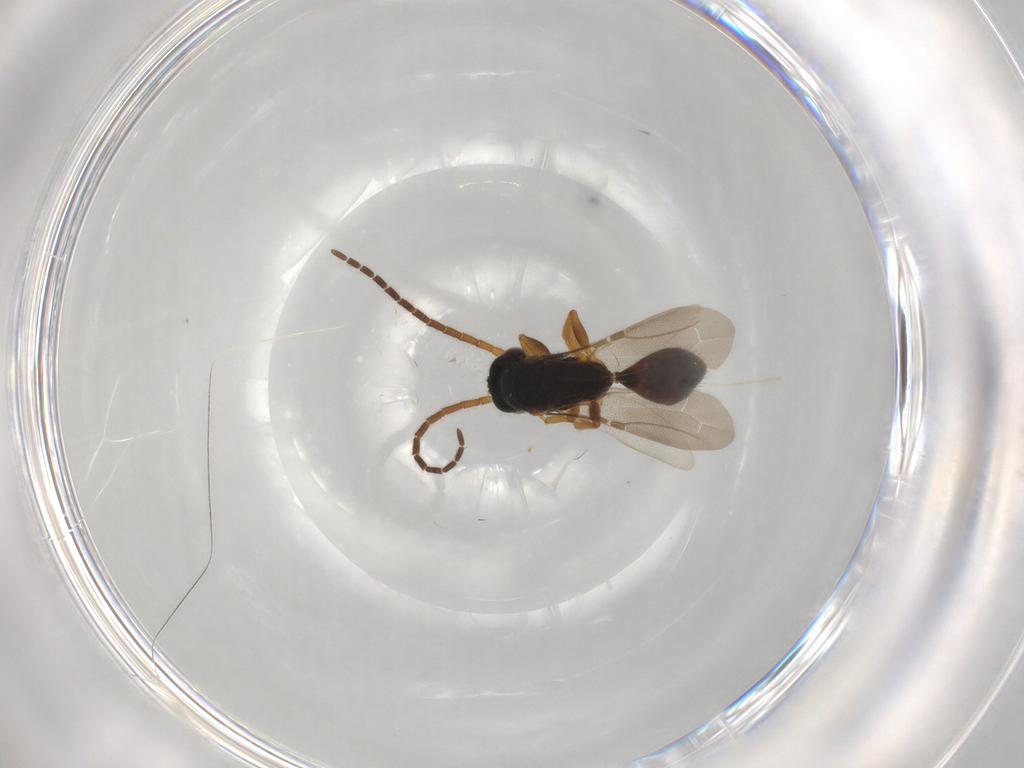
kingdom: Animalia
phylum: Arthropoda
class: Insecta
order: Hymenoptera
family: Bethylidae
